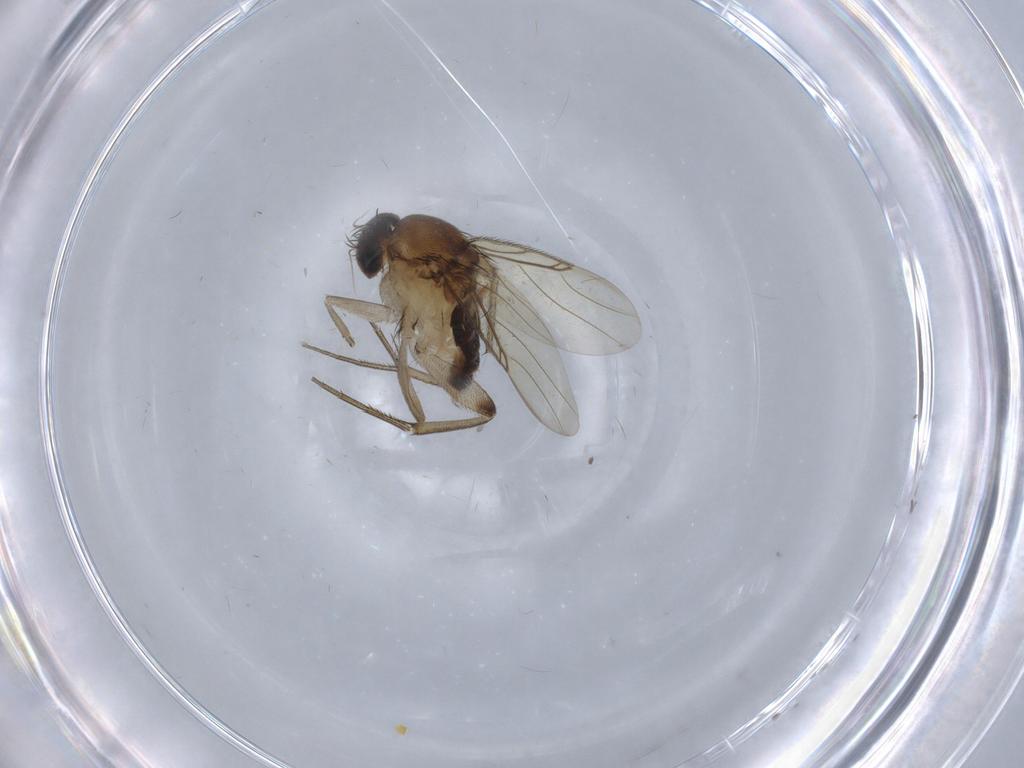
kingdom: Animalia
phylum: Arthropoda
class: Insecta
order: Diptera
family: Phoridae
